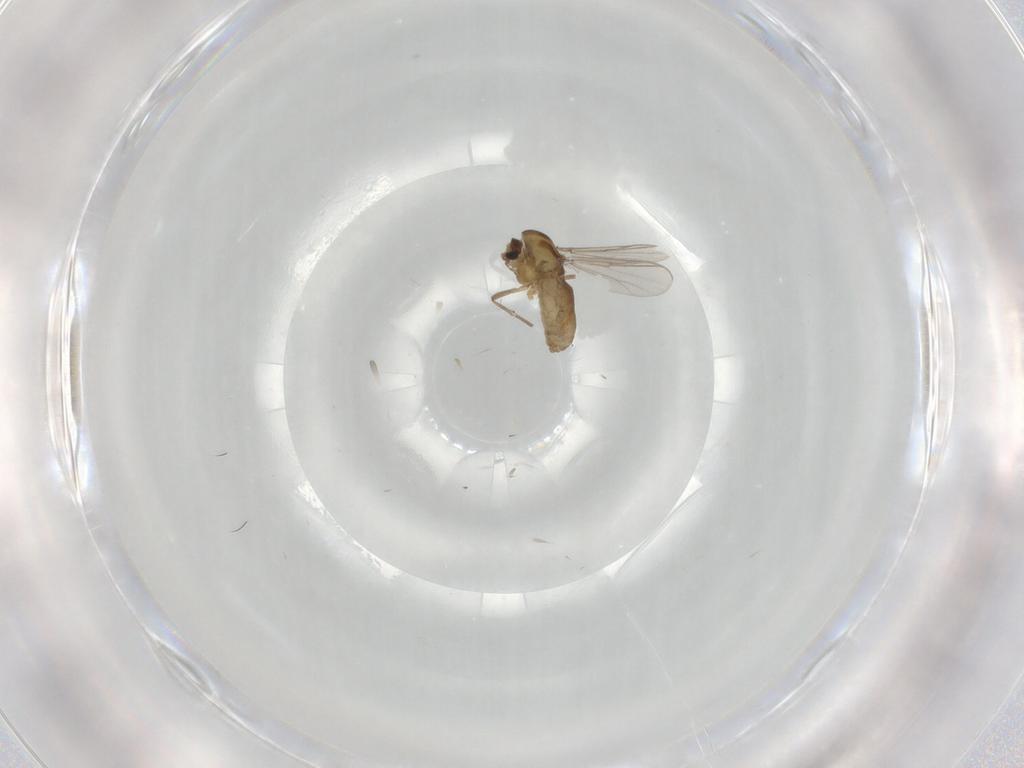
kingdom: Animalia
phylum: Arthropoda
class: Insecta
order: Diptera
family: Chironomidae
